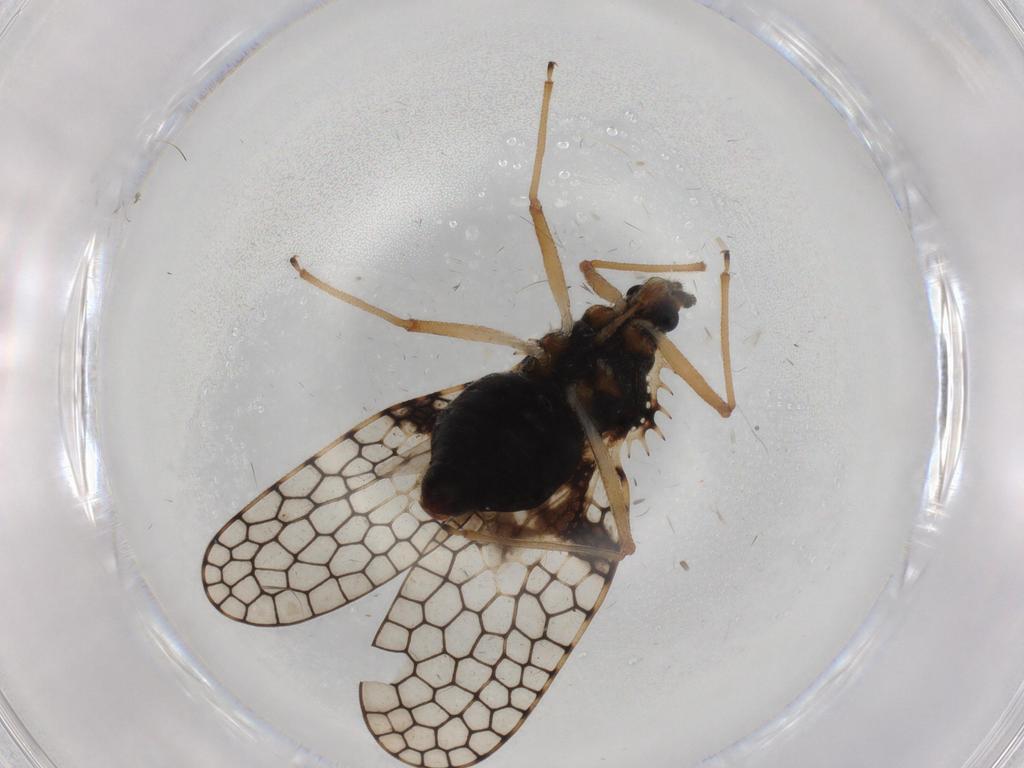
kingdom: Animalia
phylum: Arthropoda
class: Insecta
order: Hemiptera
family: Tingidae
